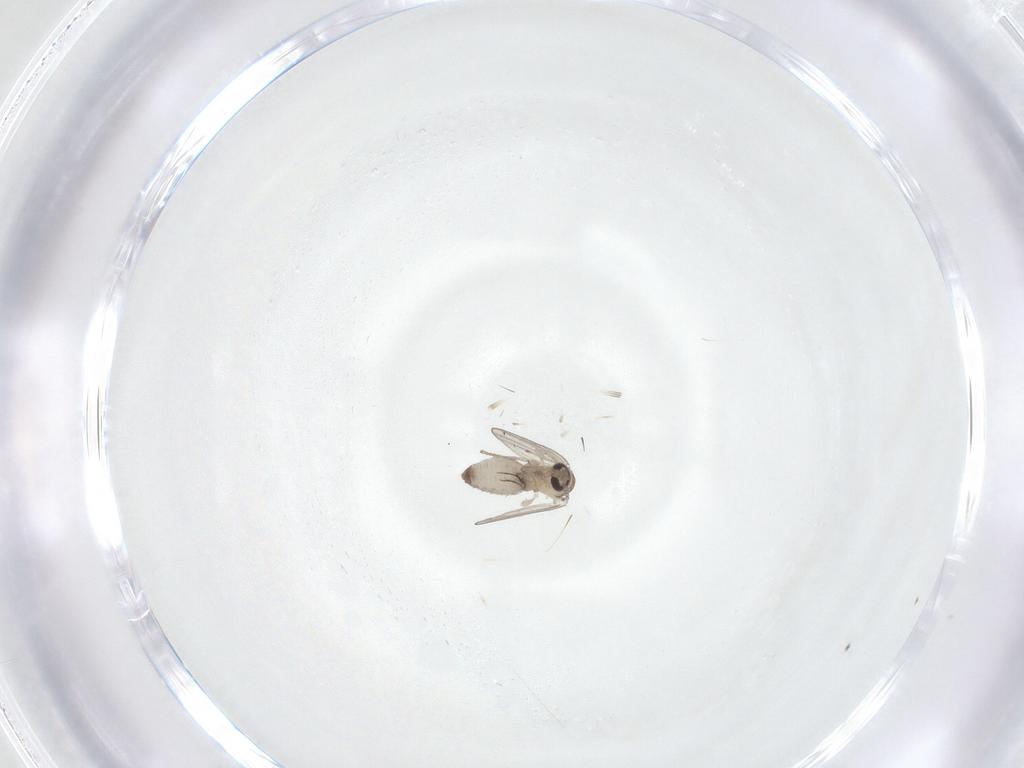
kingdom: Animalia
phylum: Arthropoda
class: Insecta
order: Diptera
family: Psychodidae
